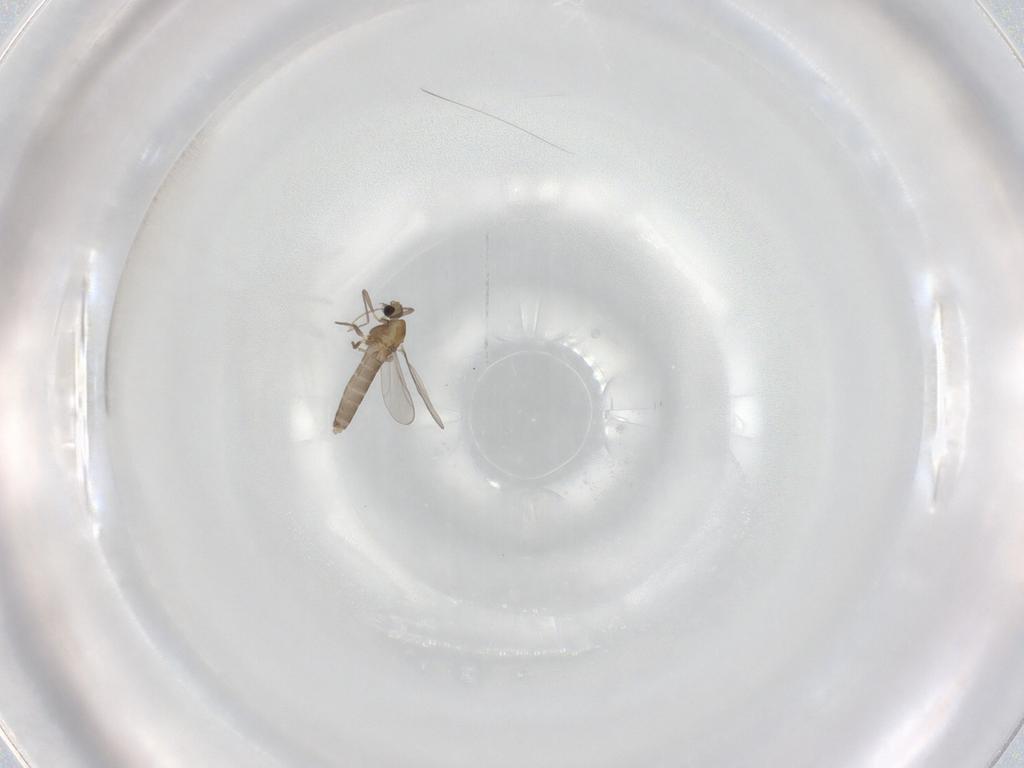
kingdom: Animalia
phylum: Arthropoda
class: Insecta
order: Diptera
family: Chironomidae
